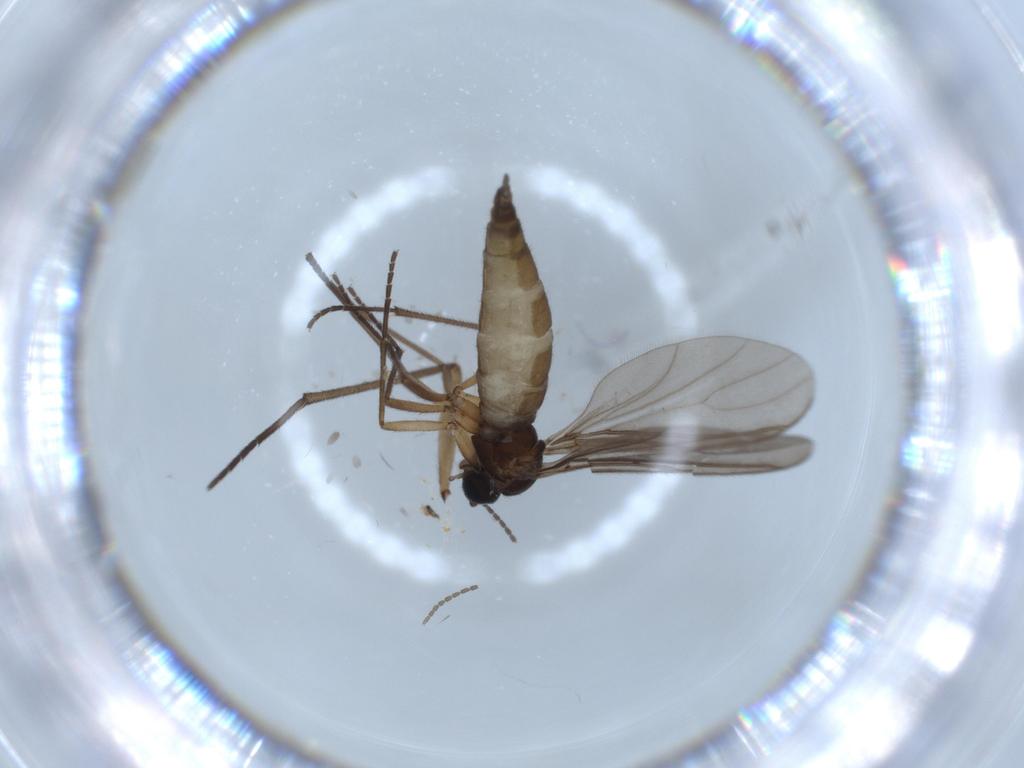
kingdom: Animalia
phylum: Arthropoda
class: Insecta
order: Diptera
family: Sciaridae
